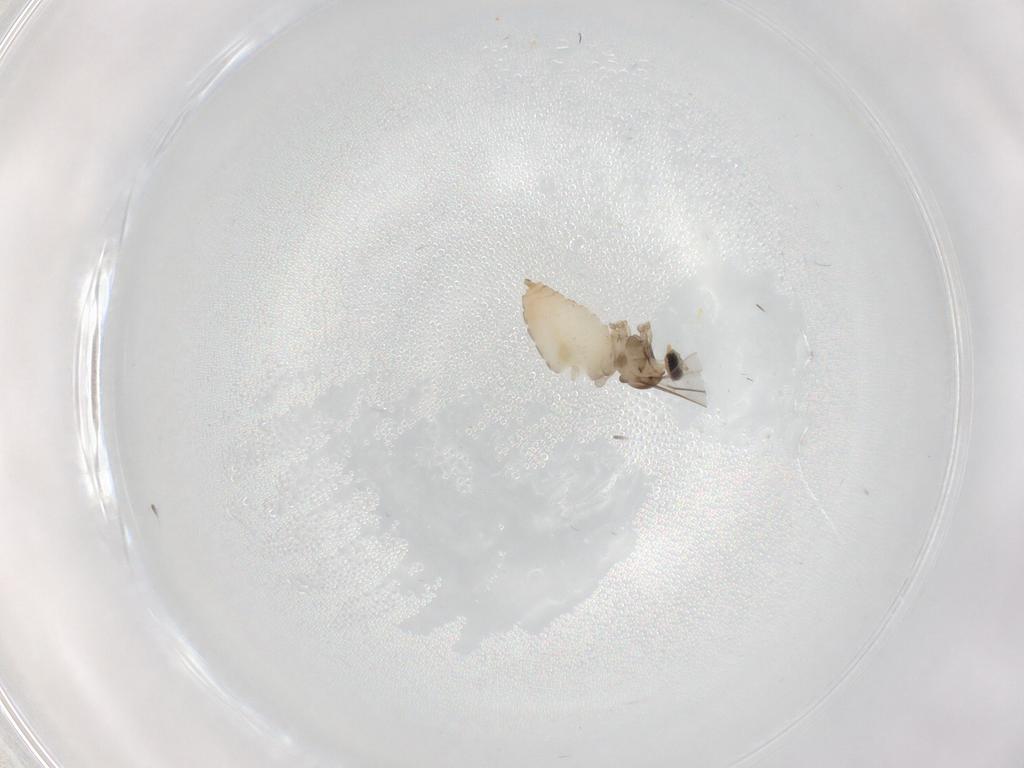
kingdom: Animalia
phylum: Arthropoda
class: Insecta
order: Diptera
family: Cecidomyiidae
